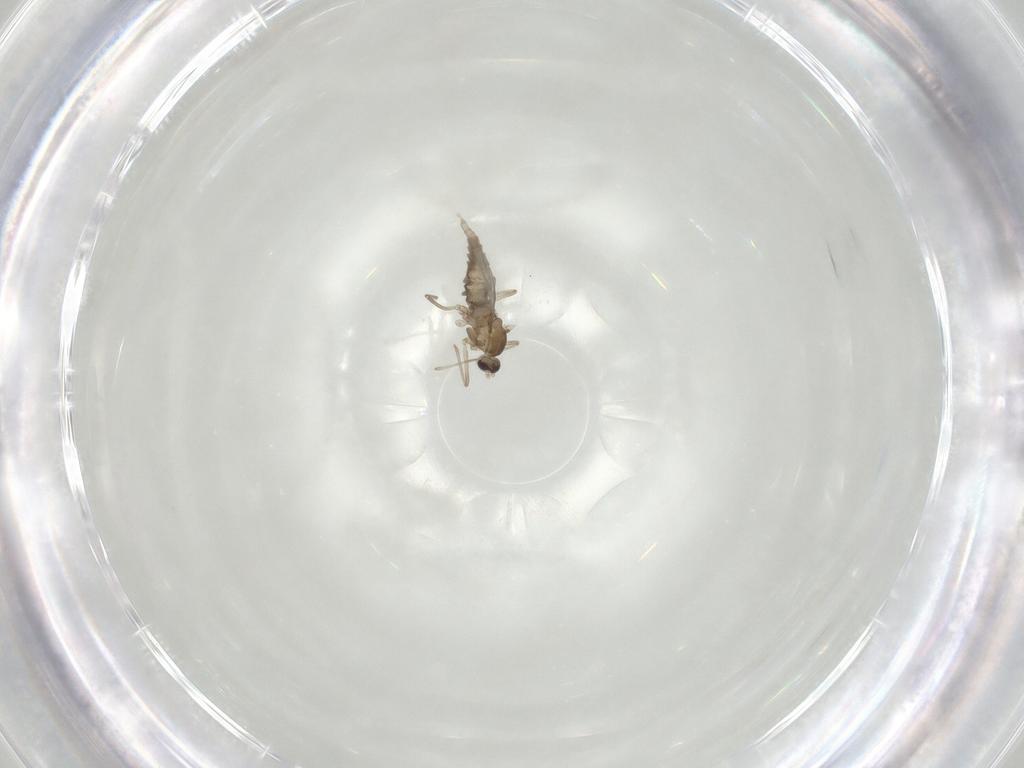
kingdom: Animalia
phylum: Arthropoda
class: Insecta
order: Diptera
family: Cecidomyiidae
